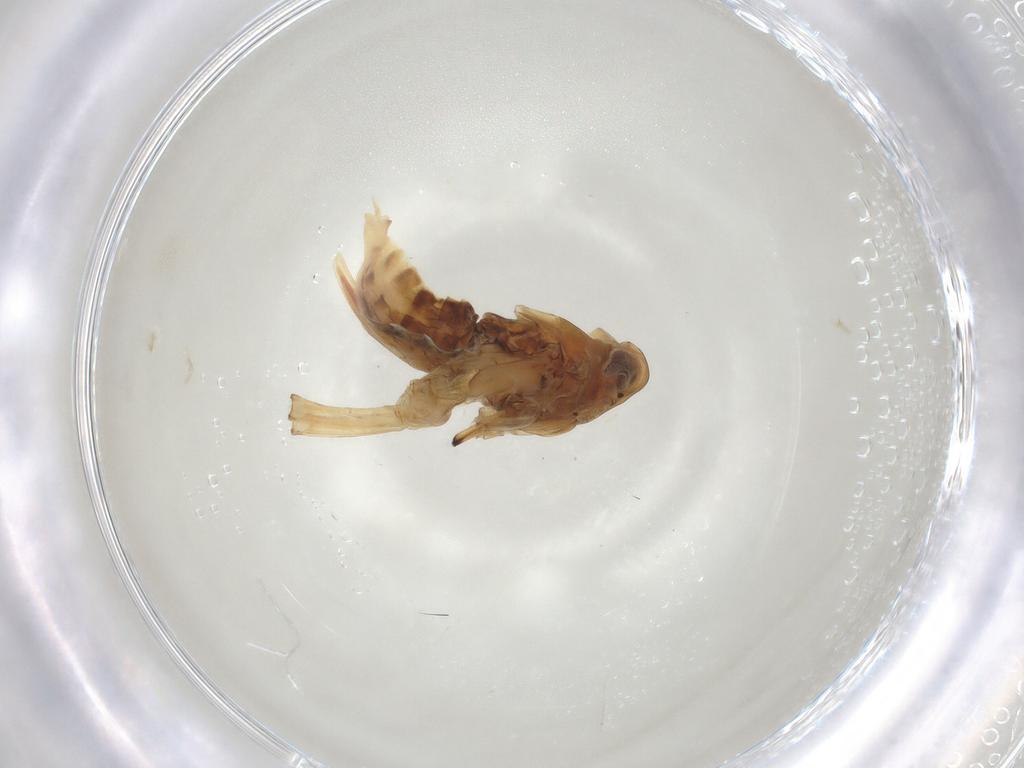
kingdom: Animalia
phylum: Arthropoda
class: Insecta
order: Hemiptera
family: Delphacidae
